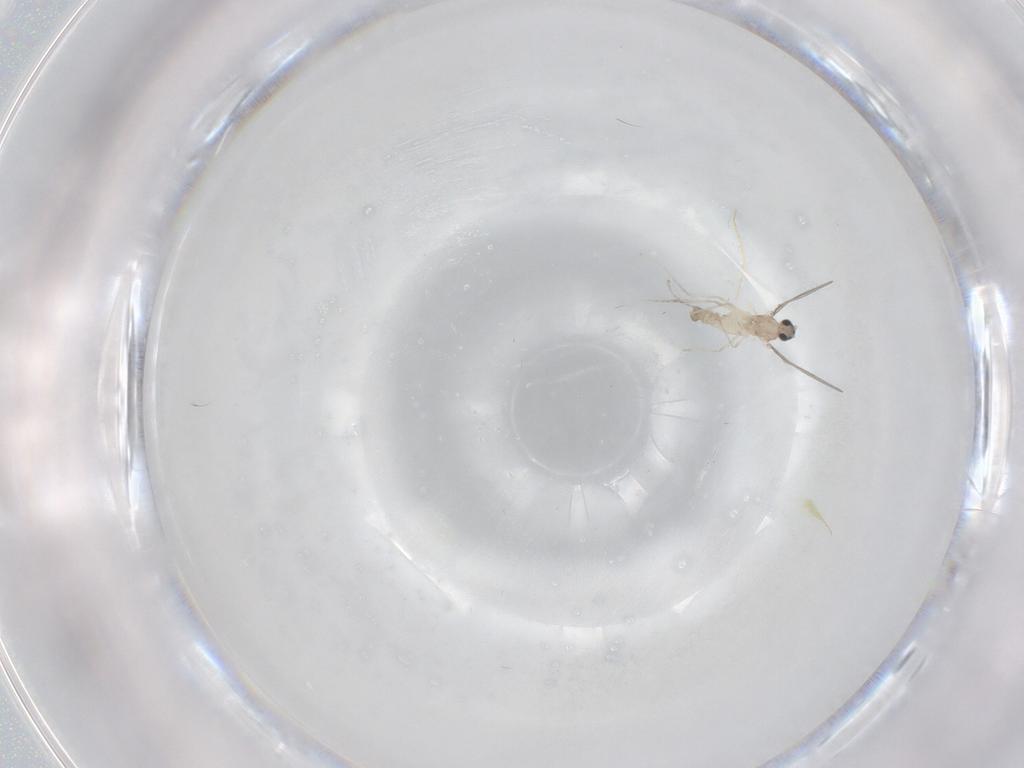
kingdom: Animalia
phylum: Arthropoda
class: Insecta
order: Diptera
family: Cecidomyiidae
